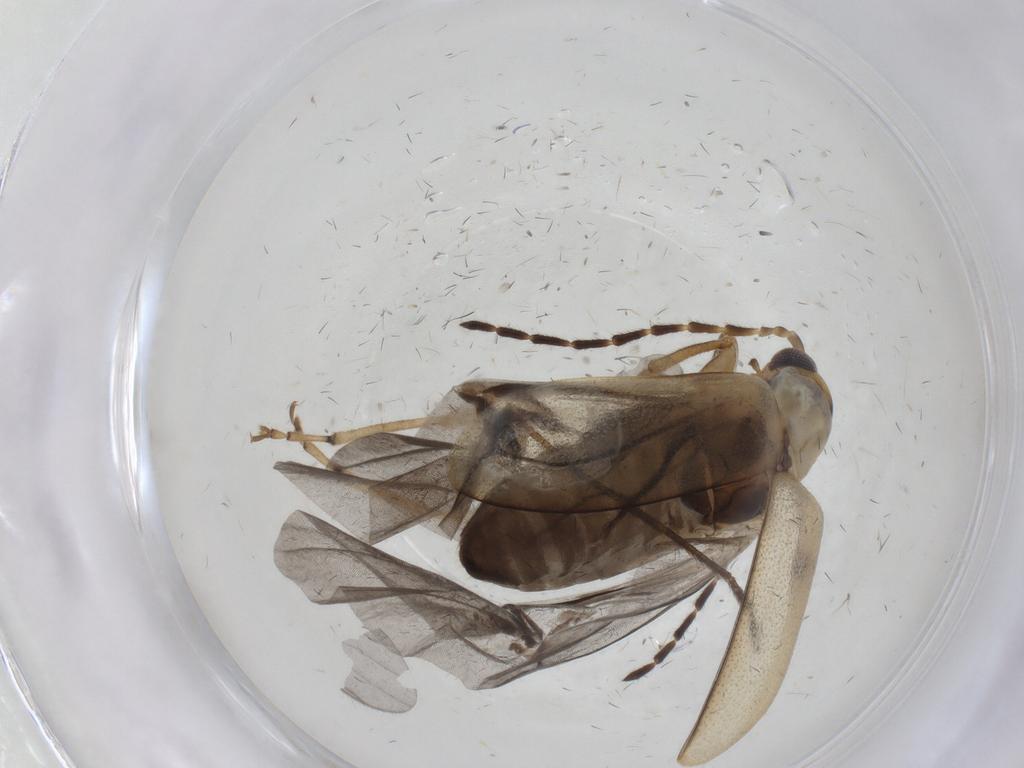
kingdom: Animalia
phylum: Arthropoda
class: Insecta
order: Coleoptera
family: Chrysomelidae
